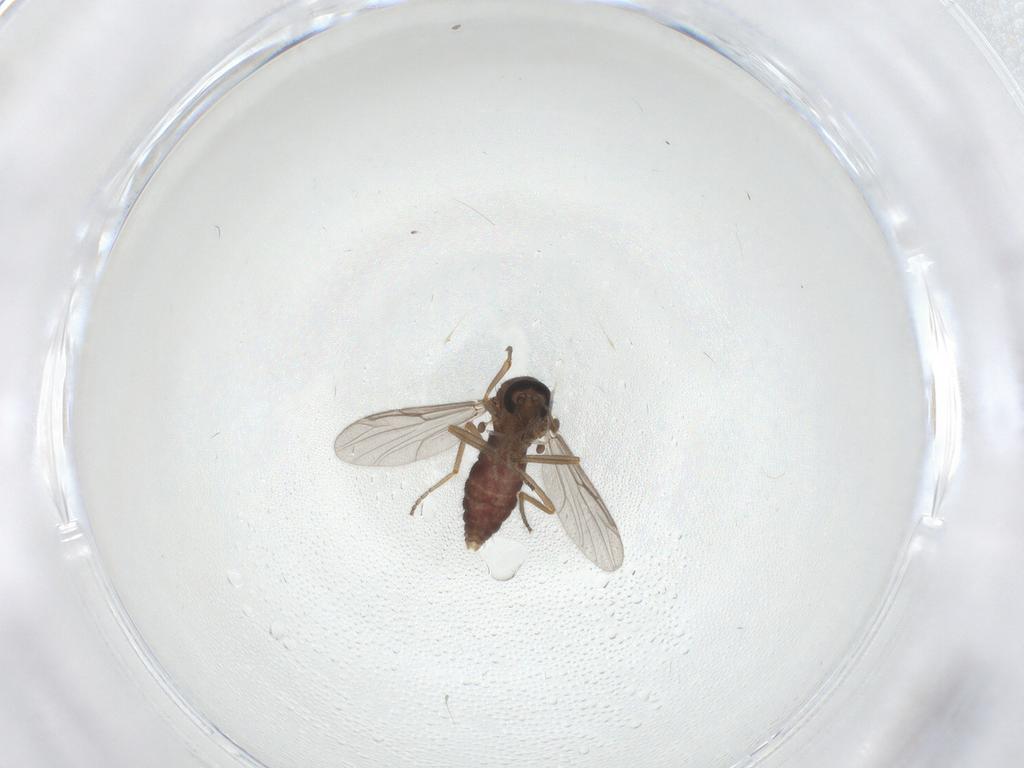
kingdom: Animalia
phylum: Arthropoda
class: Insecta
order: Diptera
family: Ceratopogonidae
